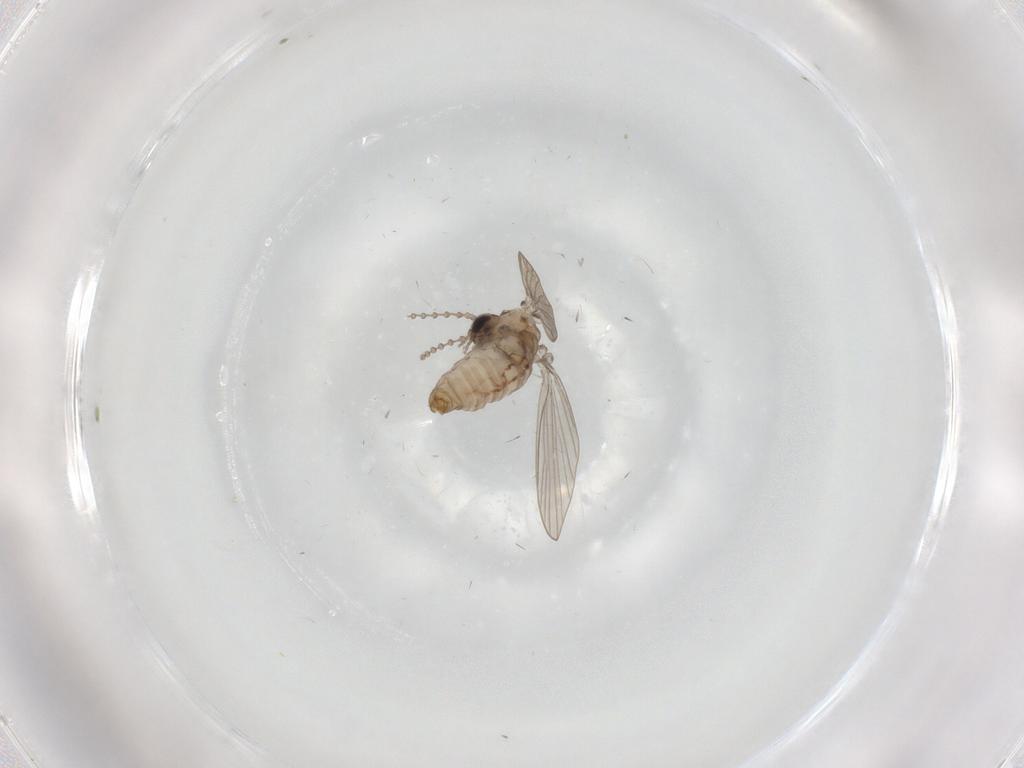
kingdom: Animalia
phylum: Arthropoda
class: Insecta
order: Diptera
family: Psychodidae
